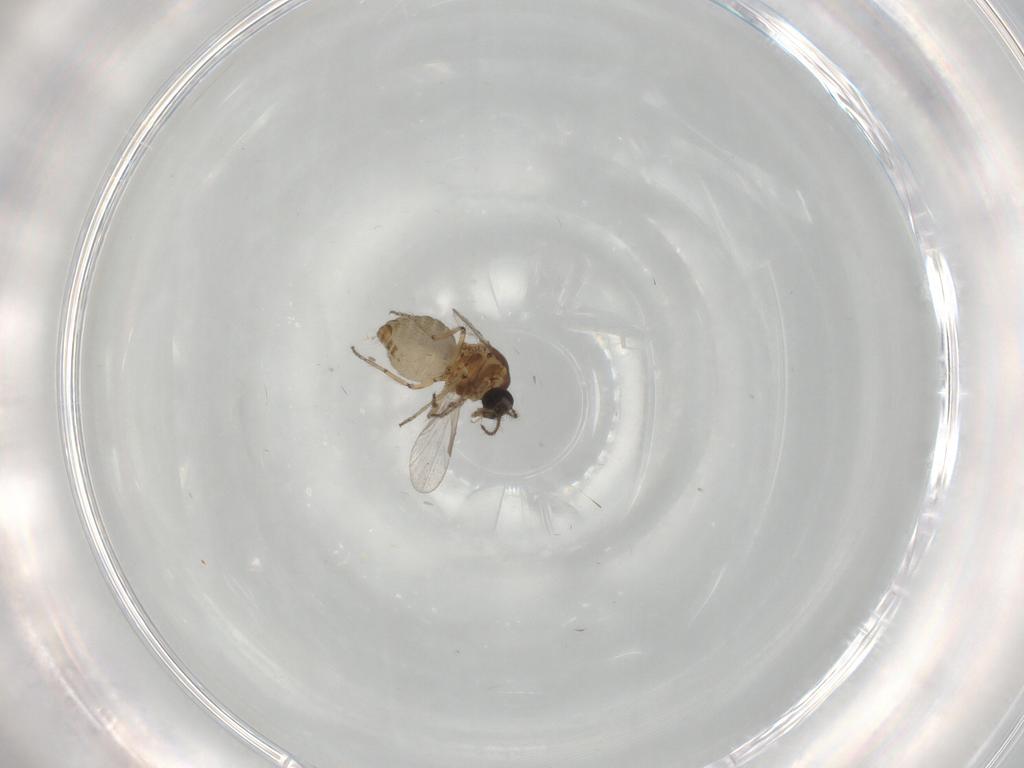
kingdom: Animalia
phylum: Arthropoda
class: Insecta
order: Diptera
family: Ceratopogonidae
